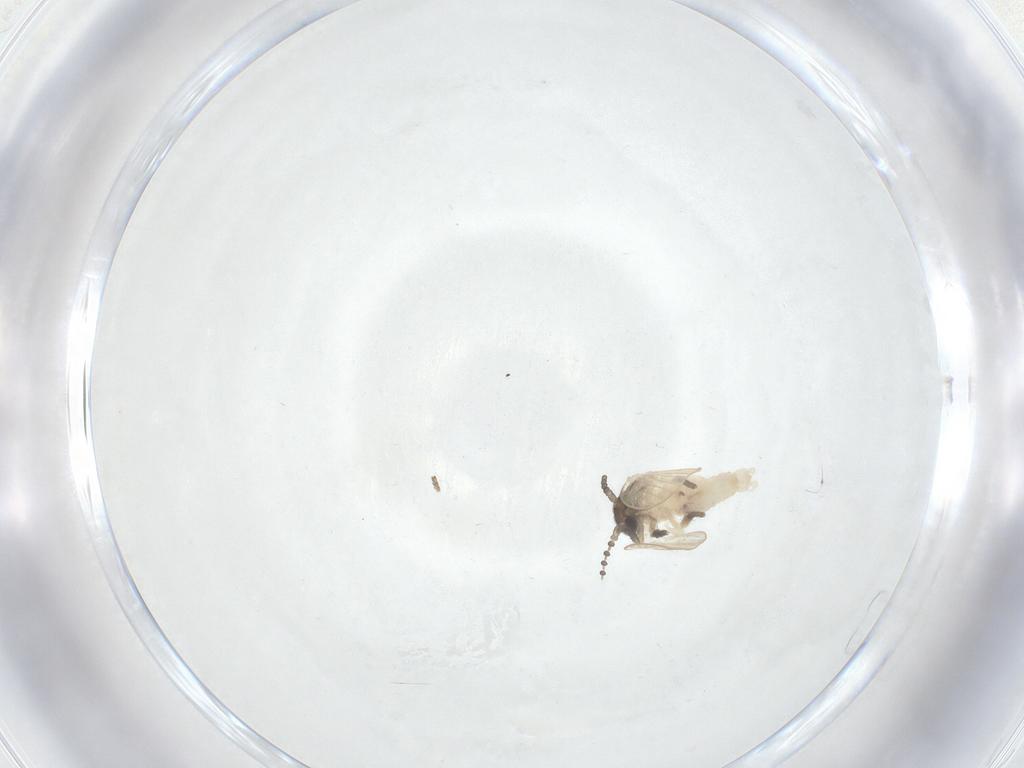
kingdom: Animalia
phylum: Arthropoda
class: Insecta
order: Diptera
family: Psychodidae
